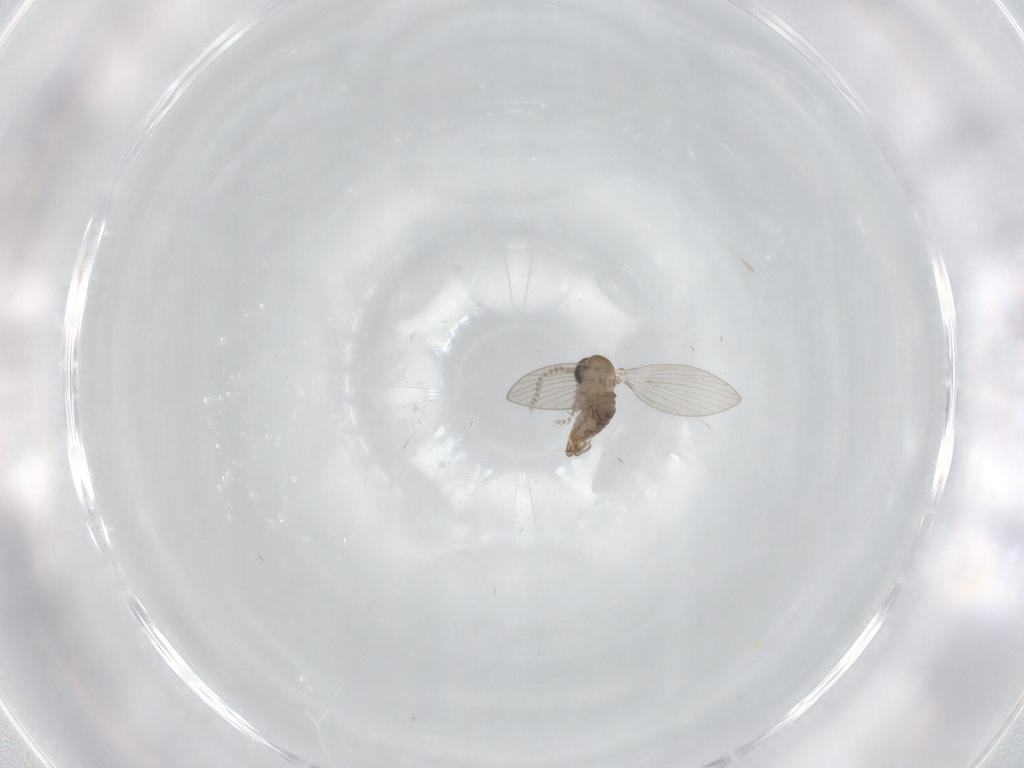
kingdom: Animalia
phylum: Arthropoda
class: Insecta
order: Diptera
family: Psychodidae
